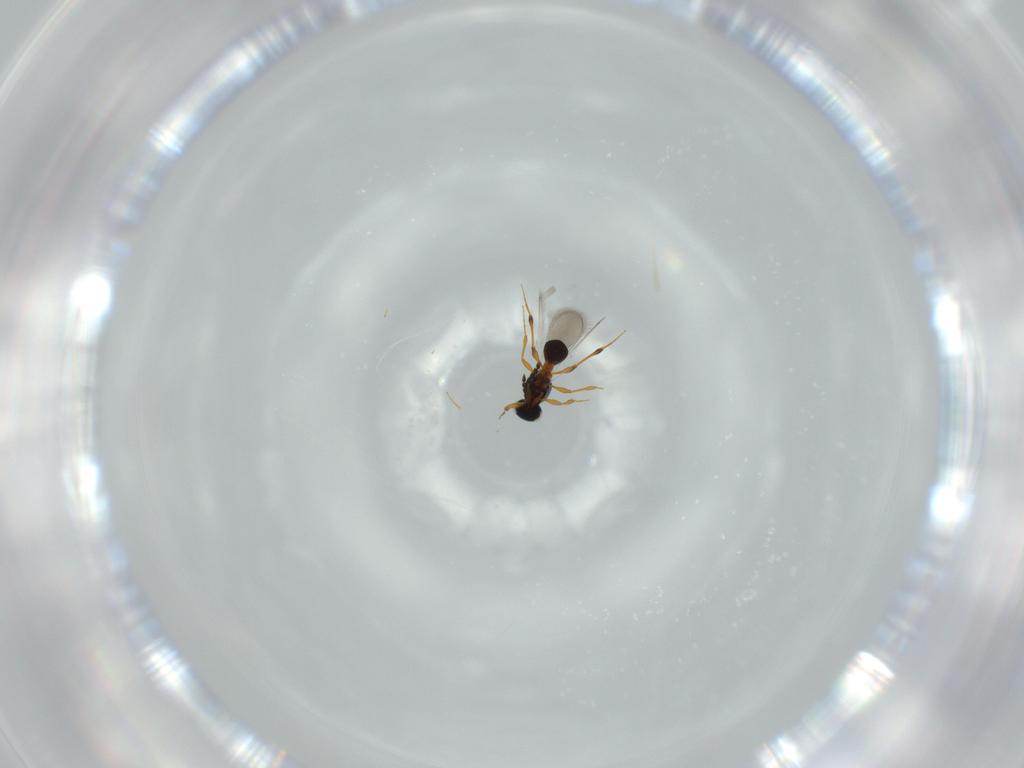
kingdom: Animalia
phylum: Arthropoda
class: Insecta
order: Hymenoptera
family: Platygastridae
